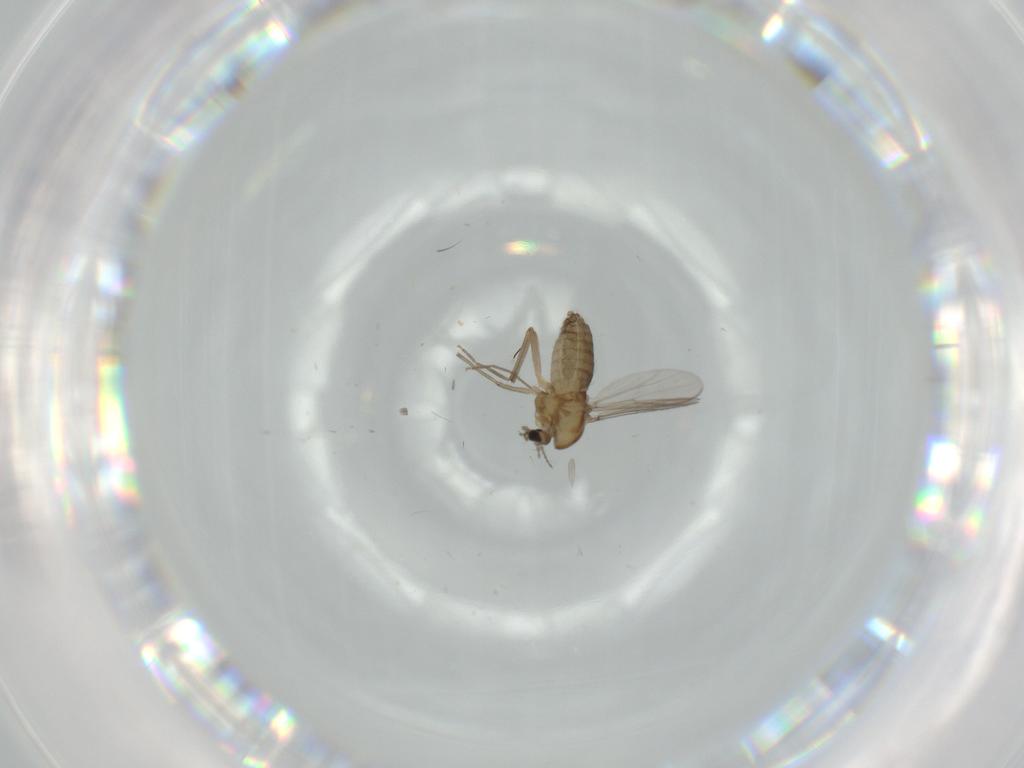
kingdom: Animalia
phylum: Arthropoda
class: Insecta
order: Diptera
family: Chironomidae
